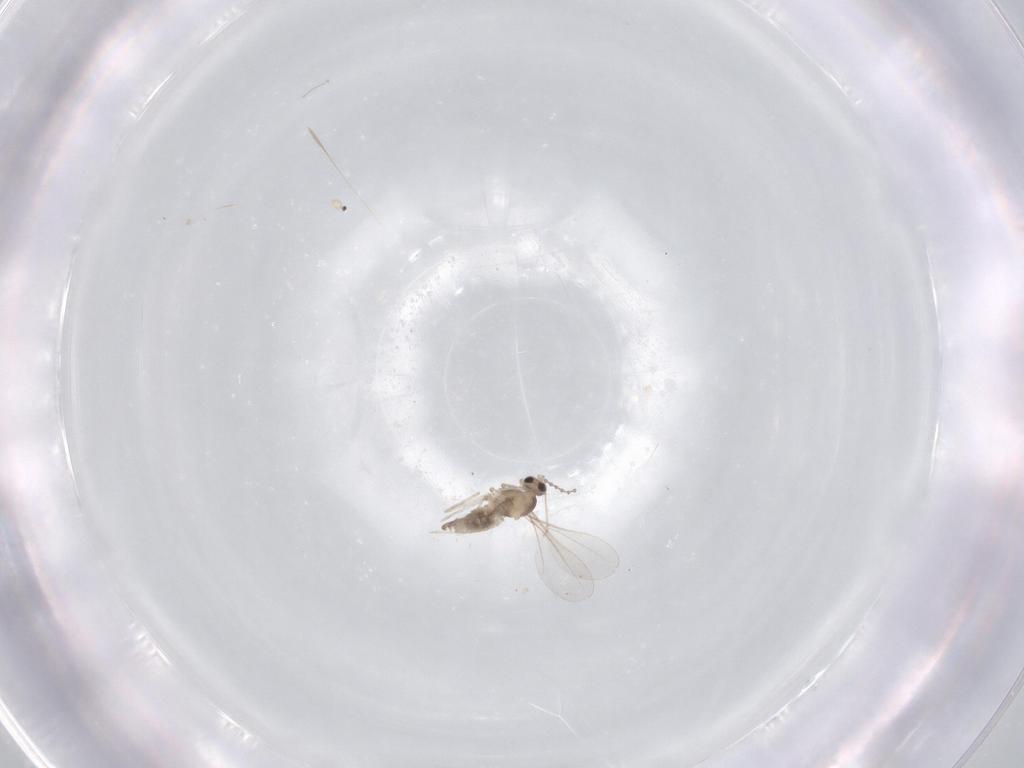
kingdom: Animalia
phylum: Arthropoda
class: Insecta
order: Diptera
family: Cecidomyiidae
